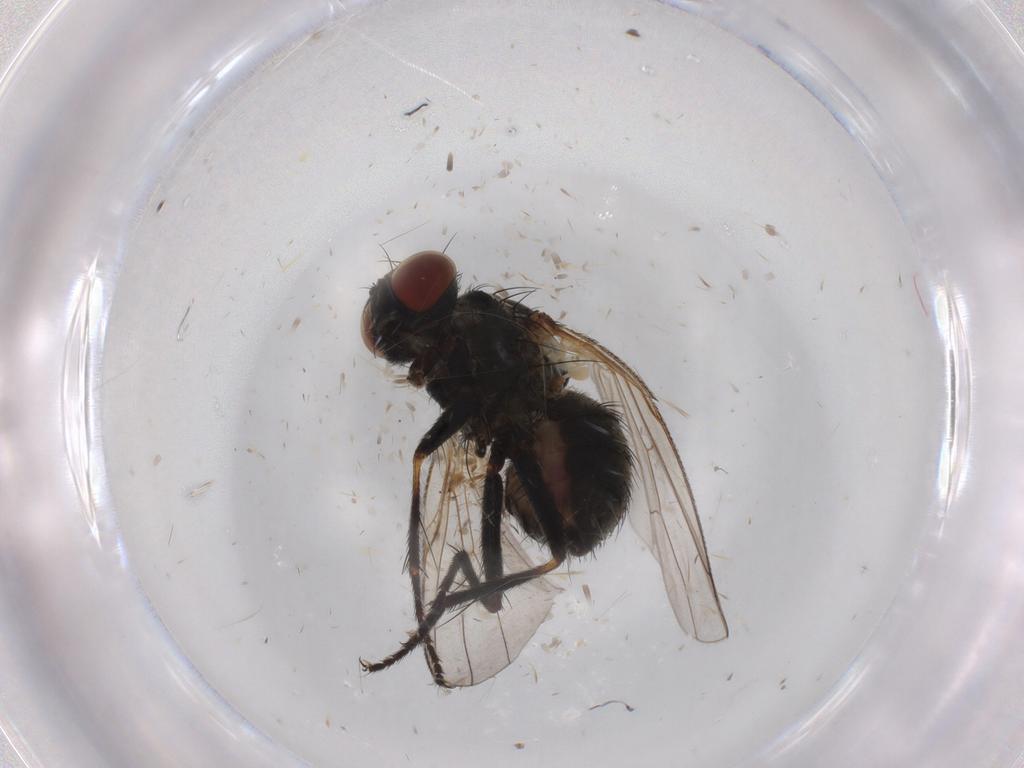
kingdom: Animalia
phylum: Arthropoda
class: Insecta
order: Diptera
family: Muscidae
